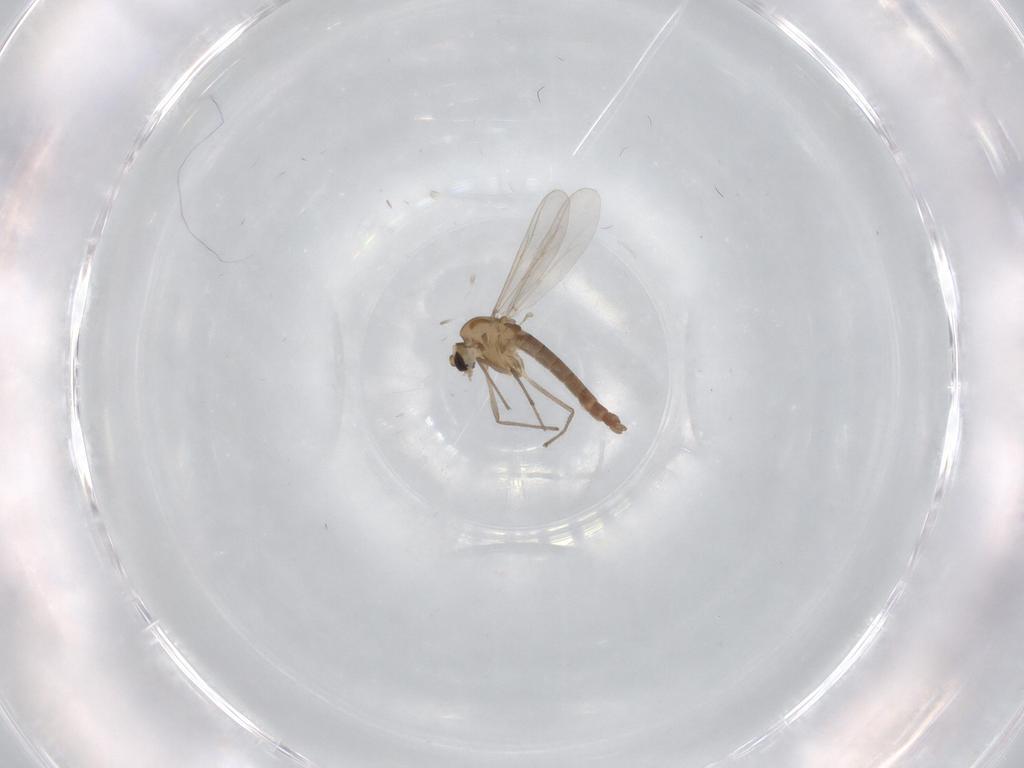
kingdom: Animalia
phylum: Arthropoda
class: Insecta
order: Diptera
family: Chironomidae
